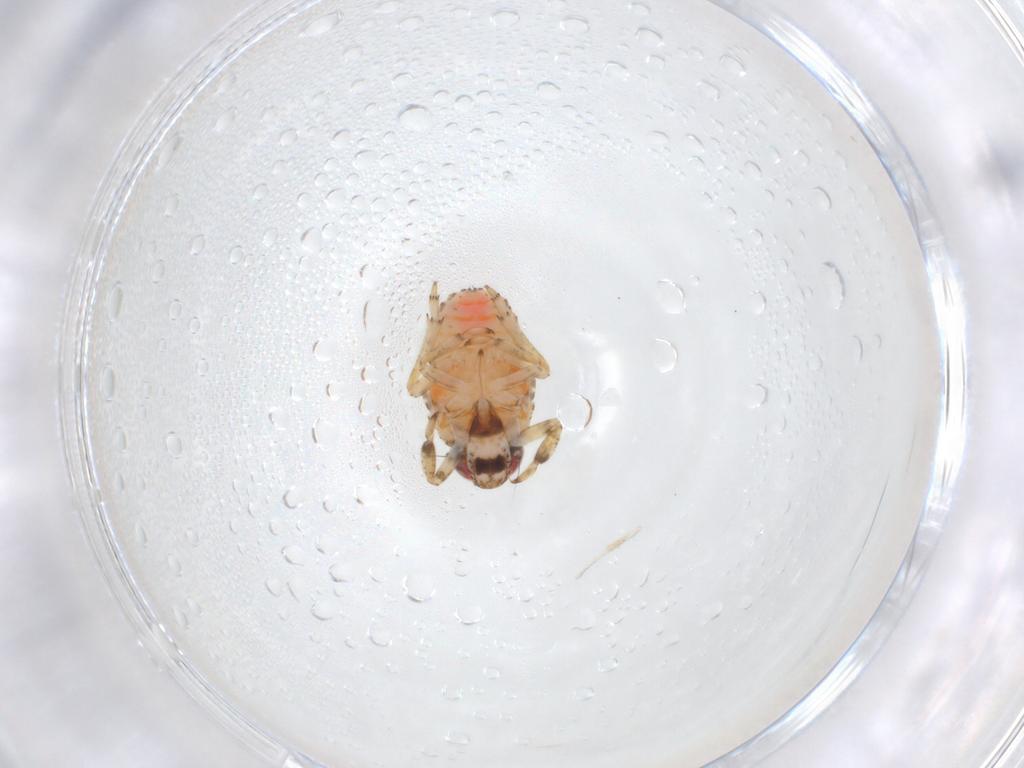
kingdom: Animalia
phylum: Arthropoda
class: Insecta
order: Hemiptera
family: Issidae
